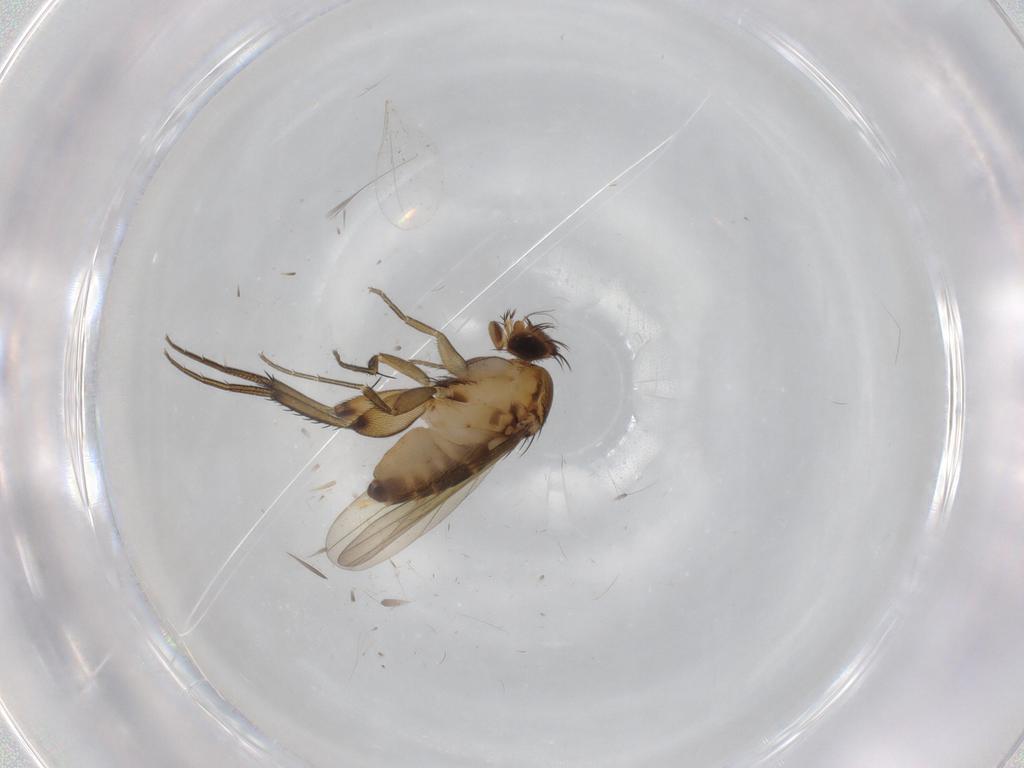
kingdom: Animalia
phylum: Arthropoda
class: Insecta
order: Diptera
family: Phoridae
